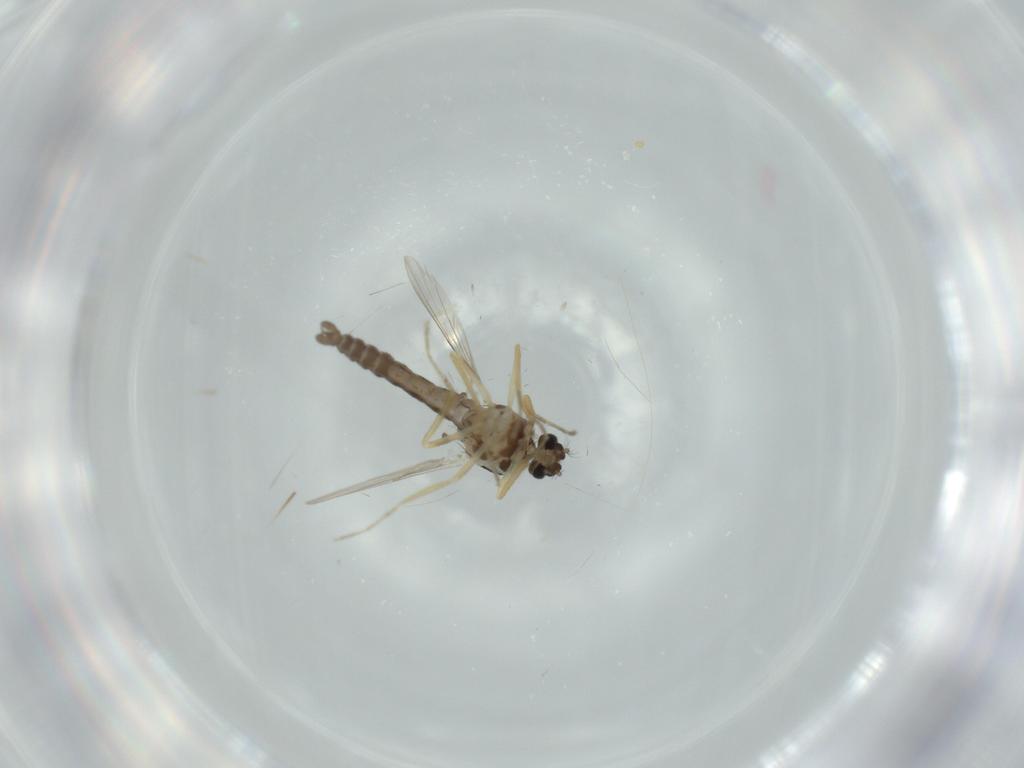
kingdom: Animalia
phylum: Arthropoda
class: Insecta
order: Diptera
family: Ceratopogonidae
